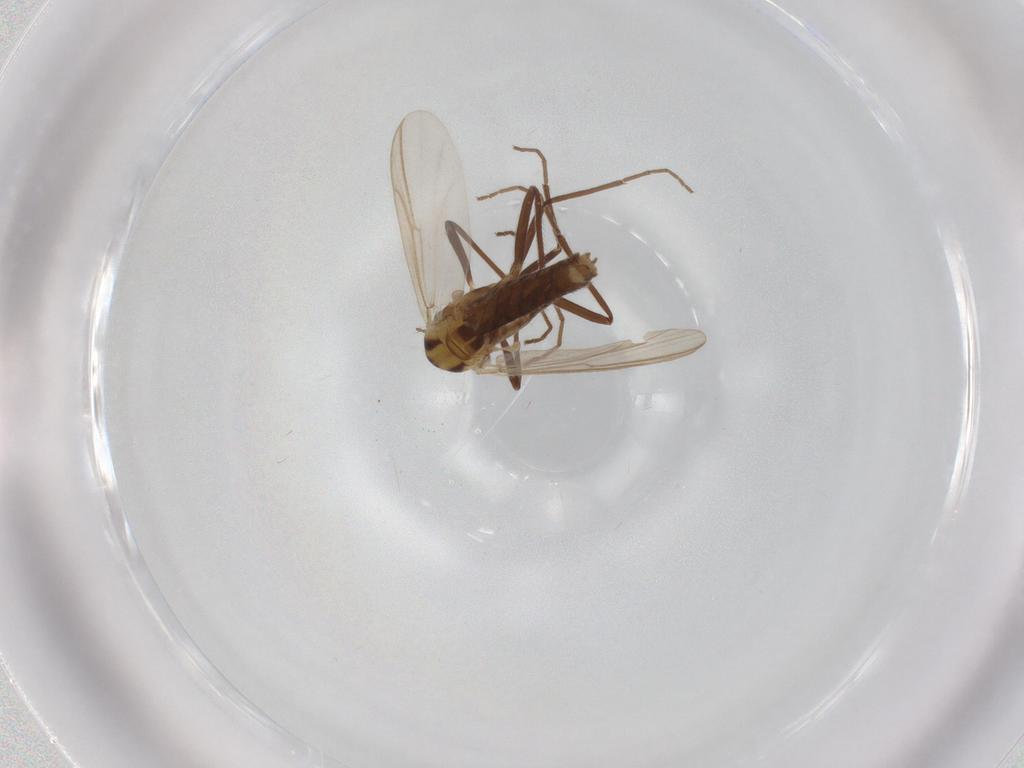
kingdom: Animalia
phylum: Arthropoda
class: Insecta
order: Diptera
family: Chironomidae
